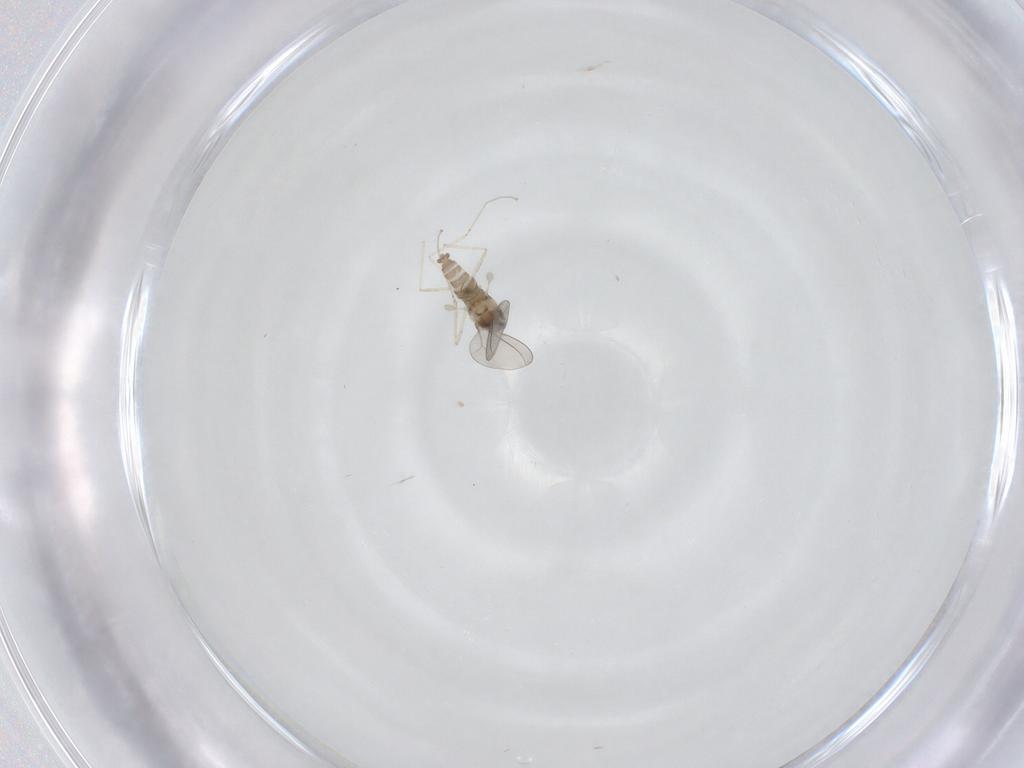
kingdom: Animalia
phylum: Arthropoda
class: Insecta
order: Diptera
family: Cecidomyiidae
